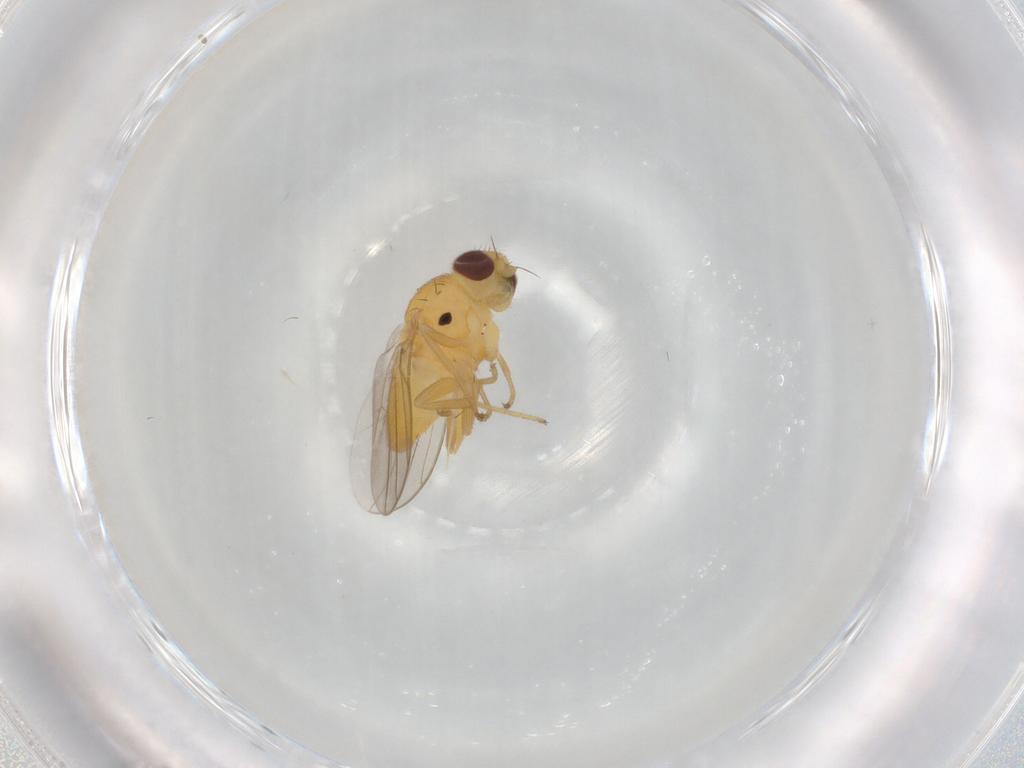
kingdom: Animalia
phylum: Arthropoda
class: Insecta
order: Diptera
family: Chloropidae
